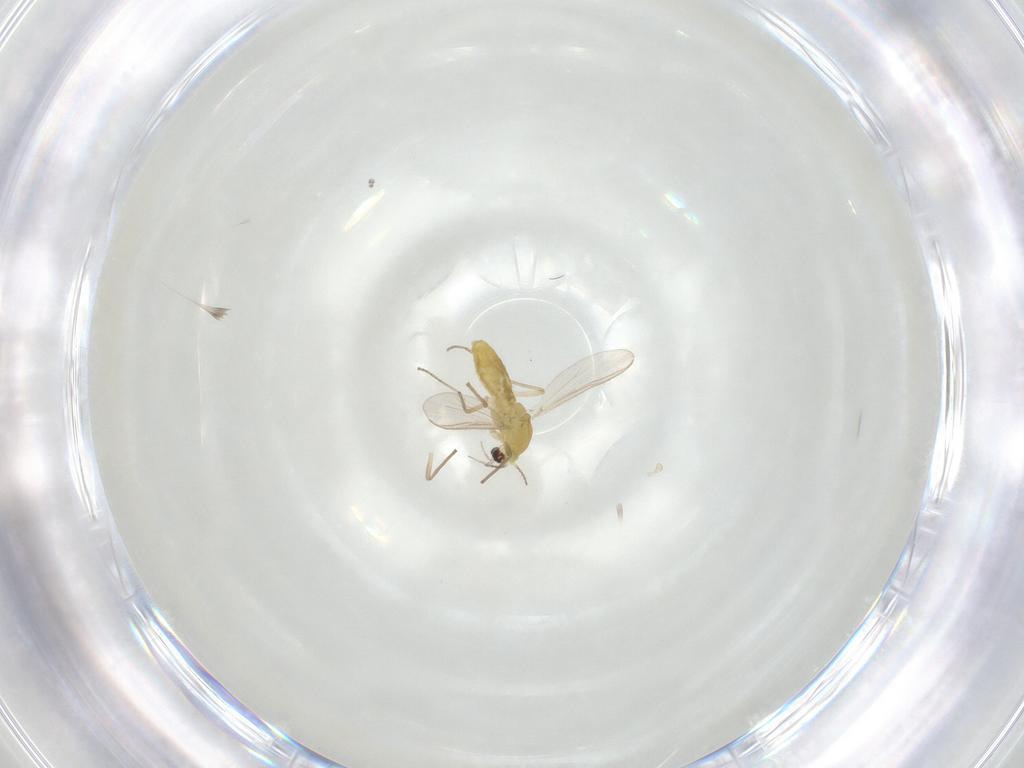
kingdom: Animalia
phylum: Arthropoda
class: Insecta
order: Diptera
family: Chironomidae
